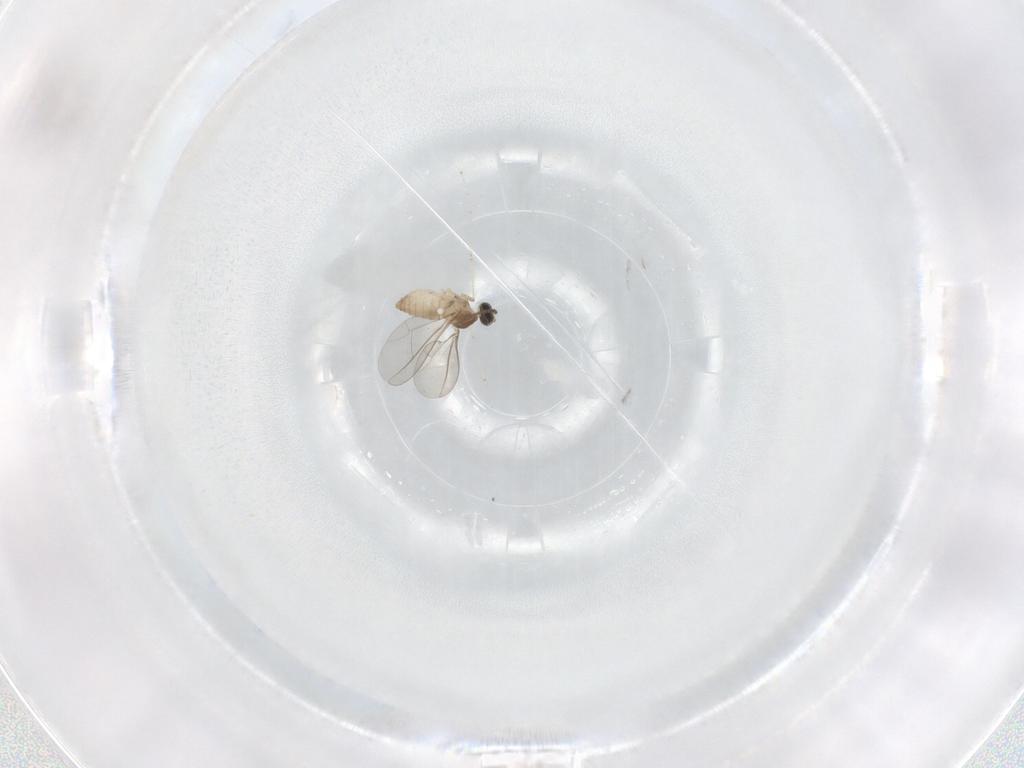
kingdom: Animalia
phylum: Arthropoda
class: Insecta
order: Diptera
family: Cecidomyiidae
